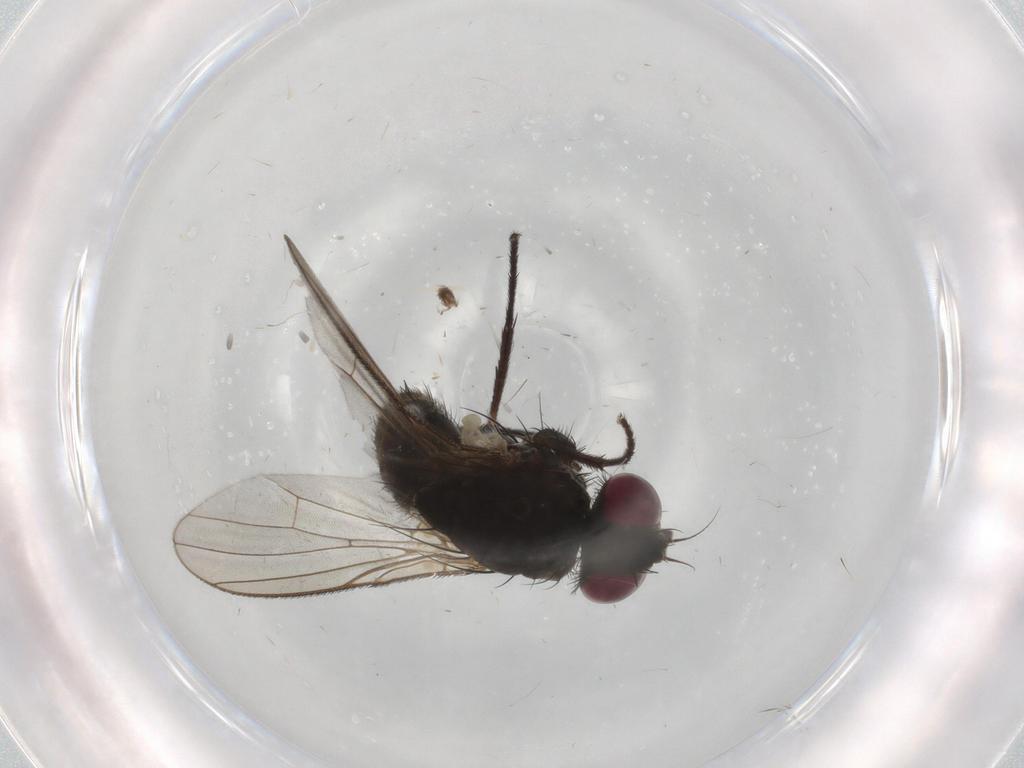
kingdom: Animalia
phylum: Arthropoda
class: Insecta
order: Diptera
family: Muscidae
